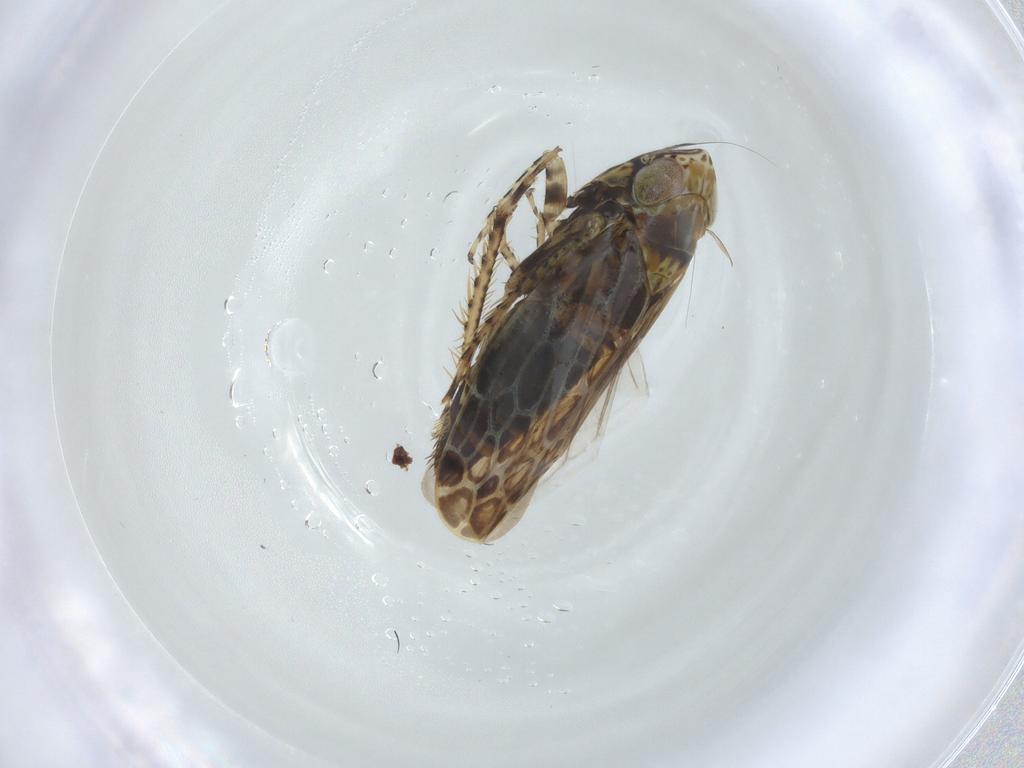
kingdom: Animalia
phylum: Arthropoda
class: Insecta
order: Hemiptera
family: Cicadellidae
